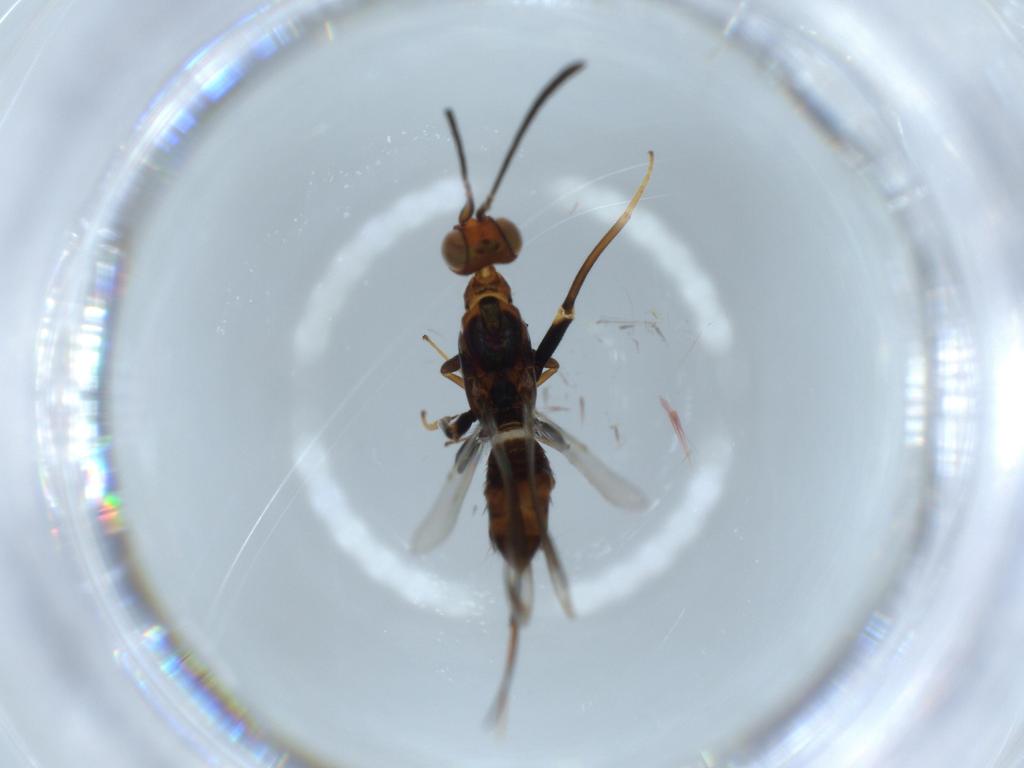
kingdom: Animalia
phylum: Arthropoda
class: Insecta
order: Hymenoptera
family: Eupelmidae
